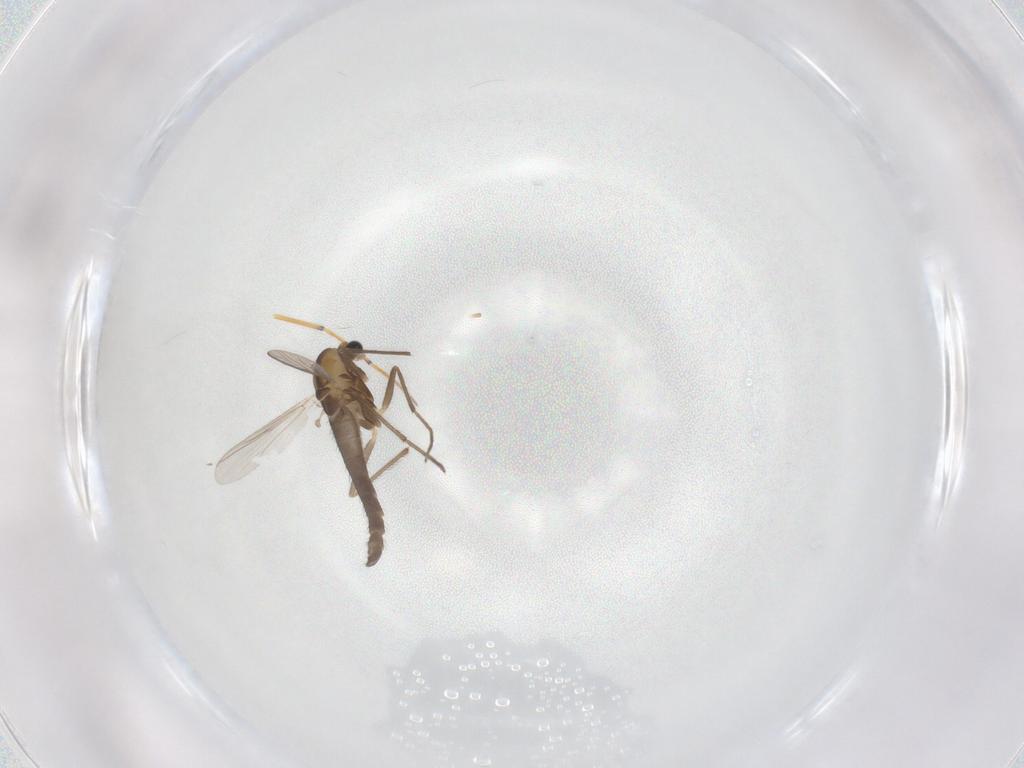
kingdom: Animalia
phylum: Arthropoda
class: Insecta
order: Diptera
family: Chironomidae
